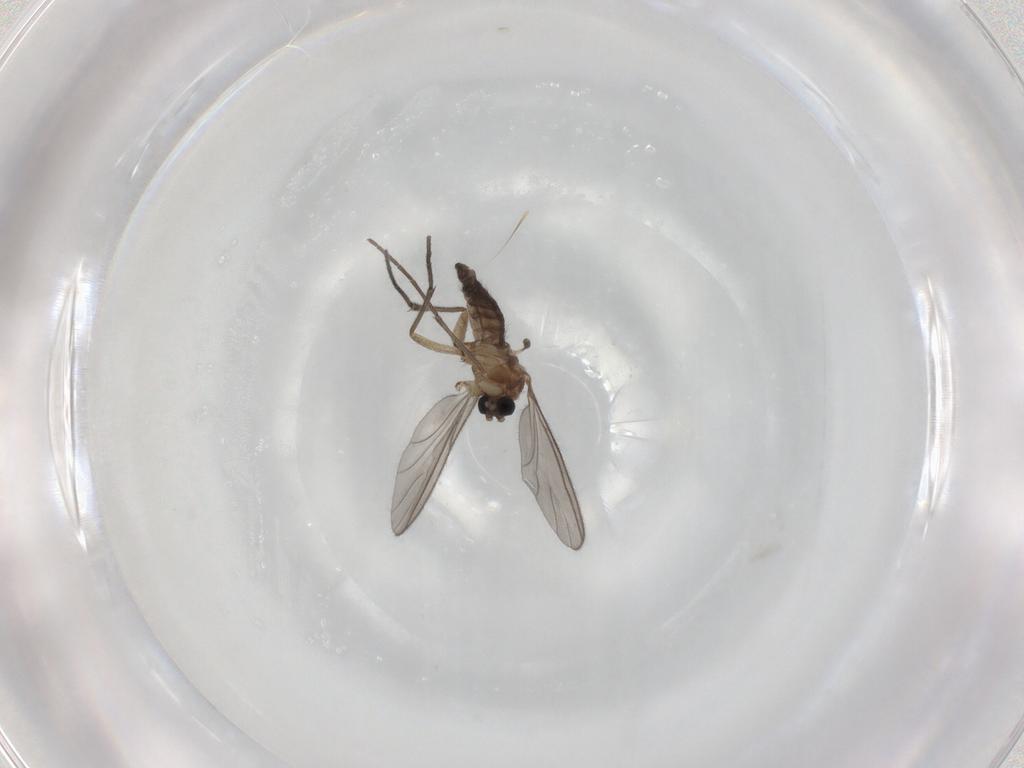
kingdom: Animalia
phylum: Arthropoda
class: Insecta
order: Diptera
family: Sciaridae
